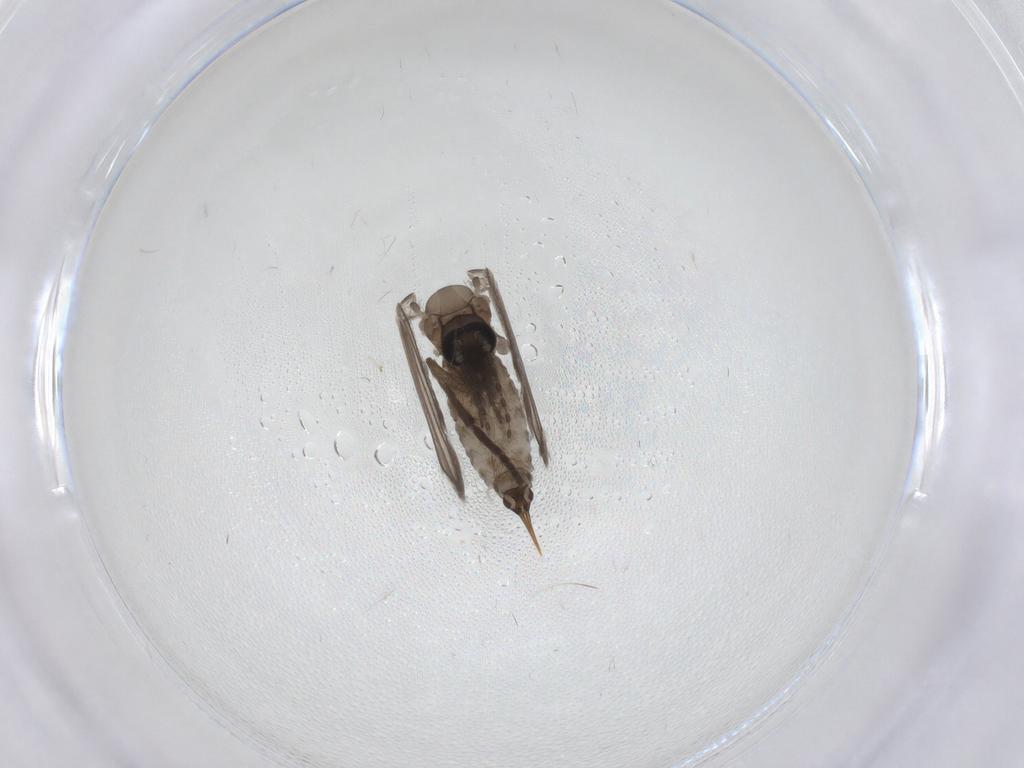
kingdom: Animalia
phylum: Arthropoda
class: Insecta
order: Diptera
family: Psychodidae
